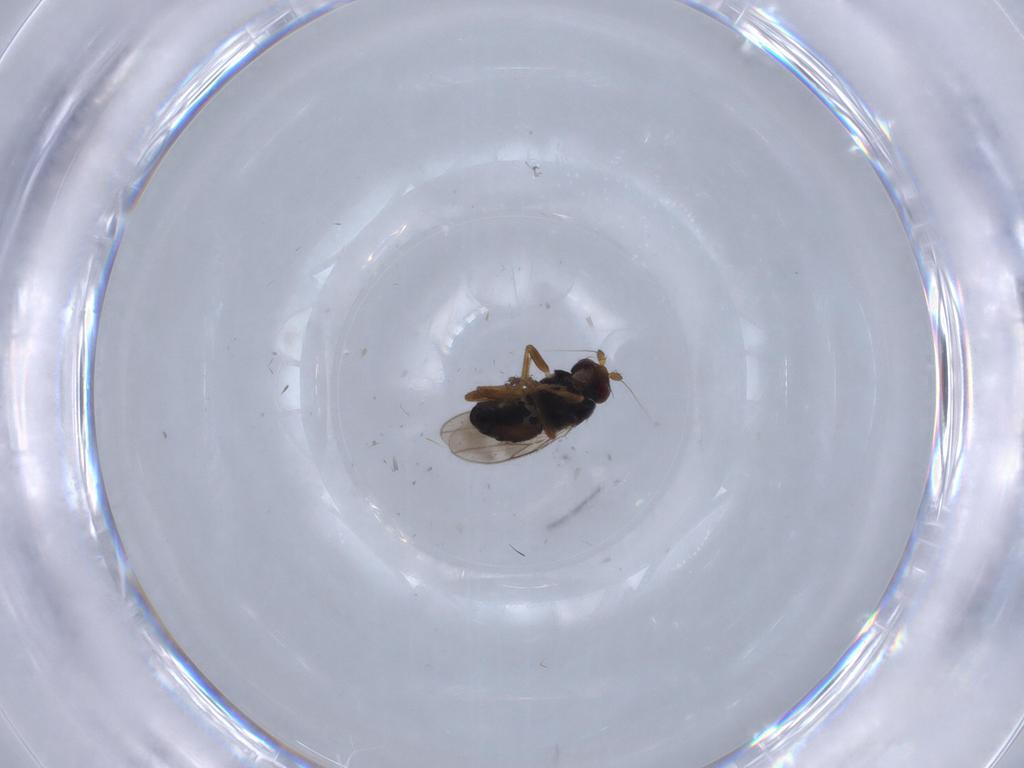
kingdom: Animalia
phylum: Arthropoda
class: Insecta
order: Diptera
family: Sphaeroceridae
